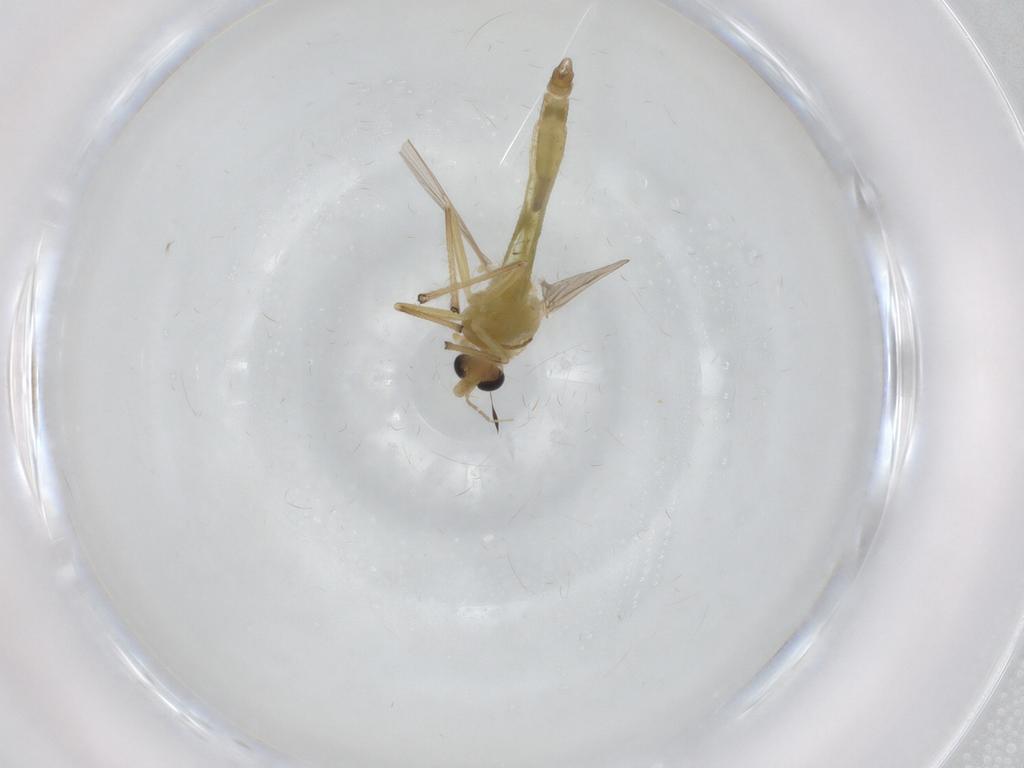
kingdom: Animalia
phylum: Arthropoda
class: Insecta
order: Diptera
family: Chironomidae
